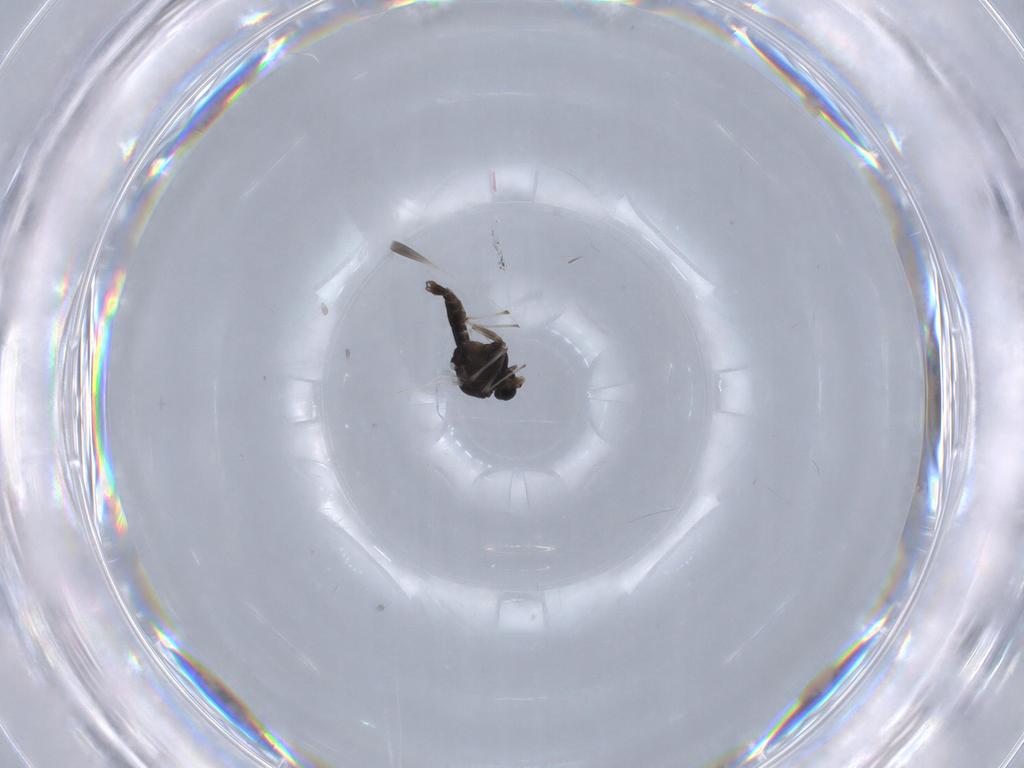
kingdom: Animalia
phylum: Arthropoda
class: Insecta
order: Diptera
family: Chironomidae
